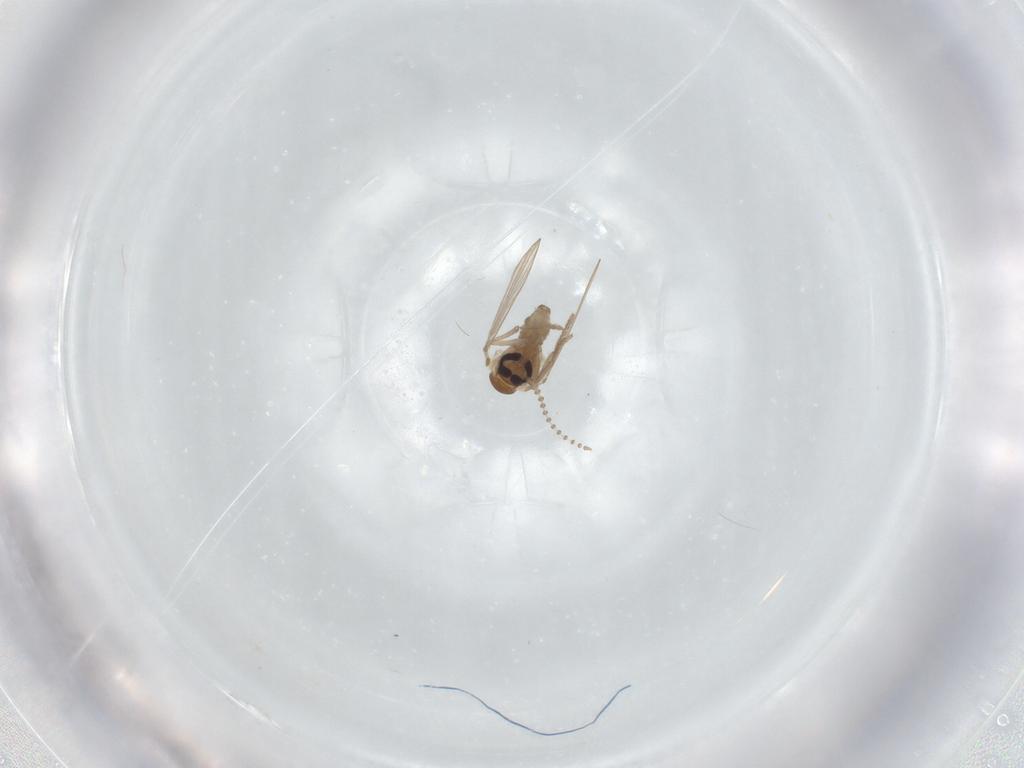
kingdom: Animalia
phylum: Arthropoda
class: Insecta
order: Diptera
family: Psychodidae
